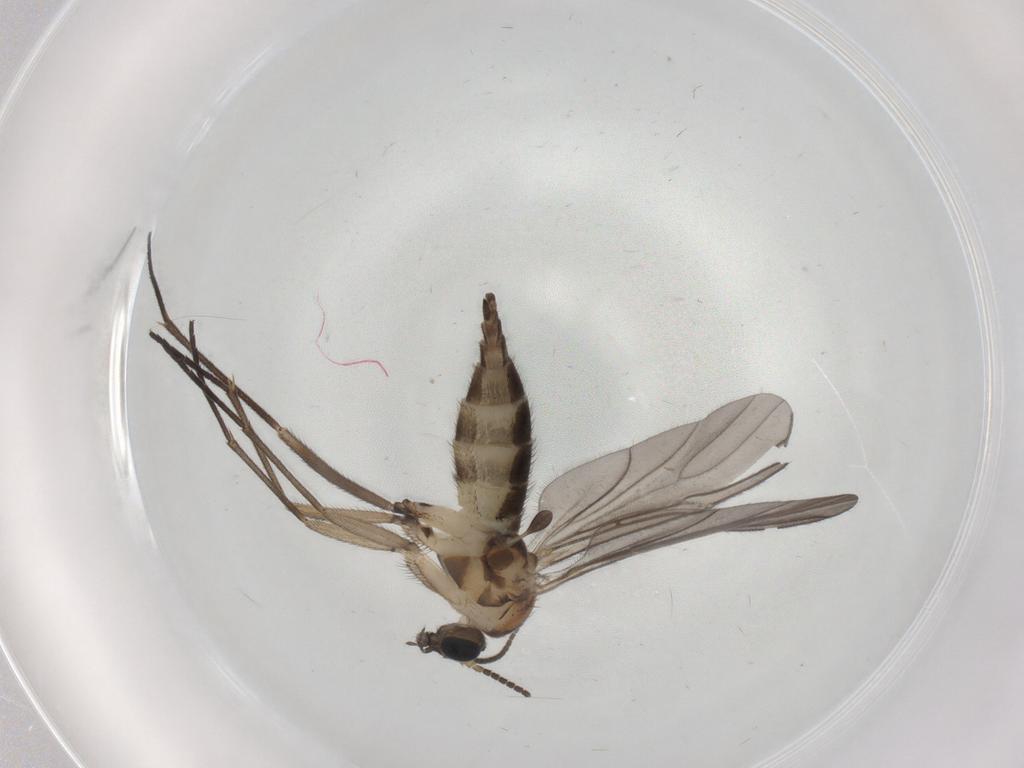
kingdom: Animalia
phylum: Arthropoda
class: Insecta
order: Diptera
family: Sciaridae
